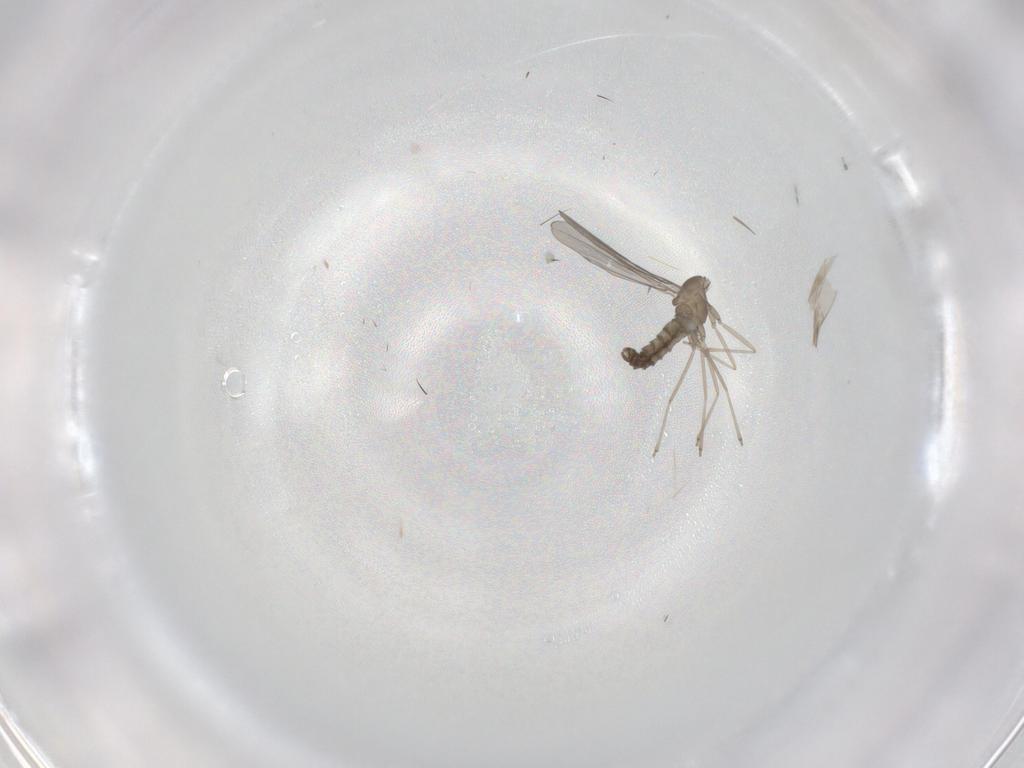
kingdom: Animalia
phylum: Arthropoda
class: Insecta
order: Diptera
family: Cecidomyiidae
